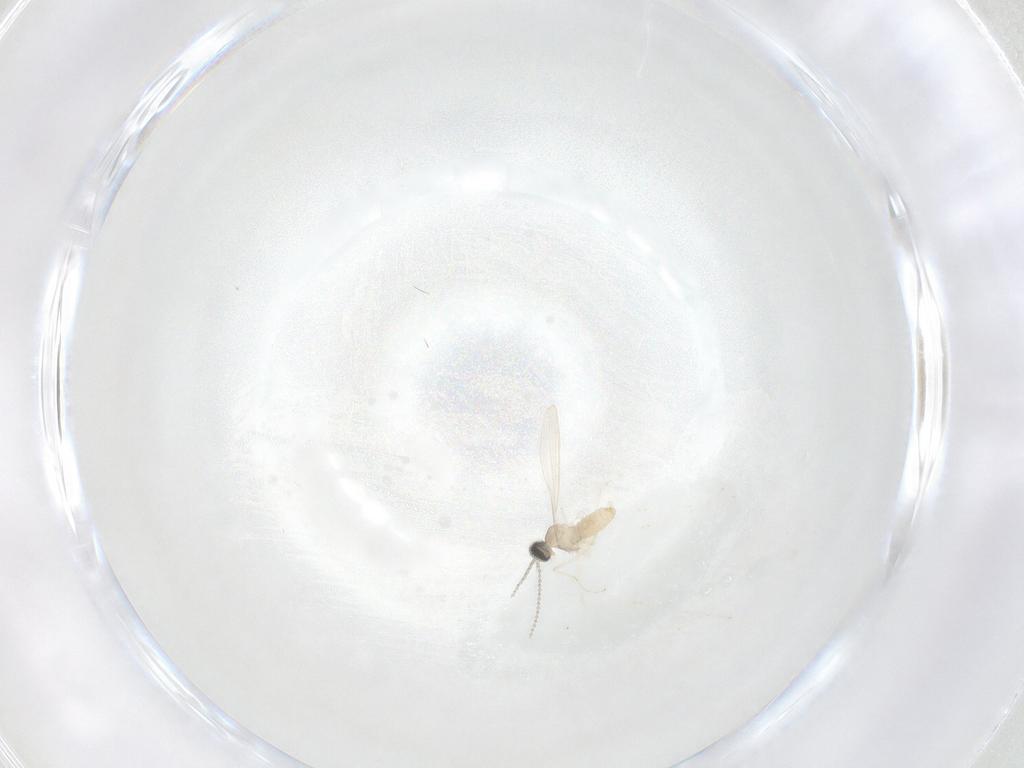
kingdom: Animalia
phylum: Arthropoda
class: Insecta
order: Diptera
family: Cecidomyiidae
